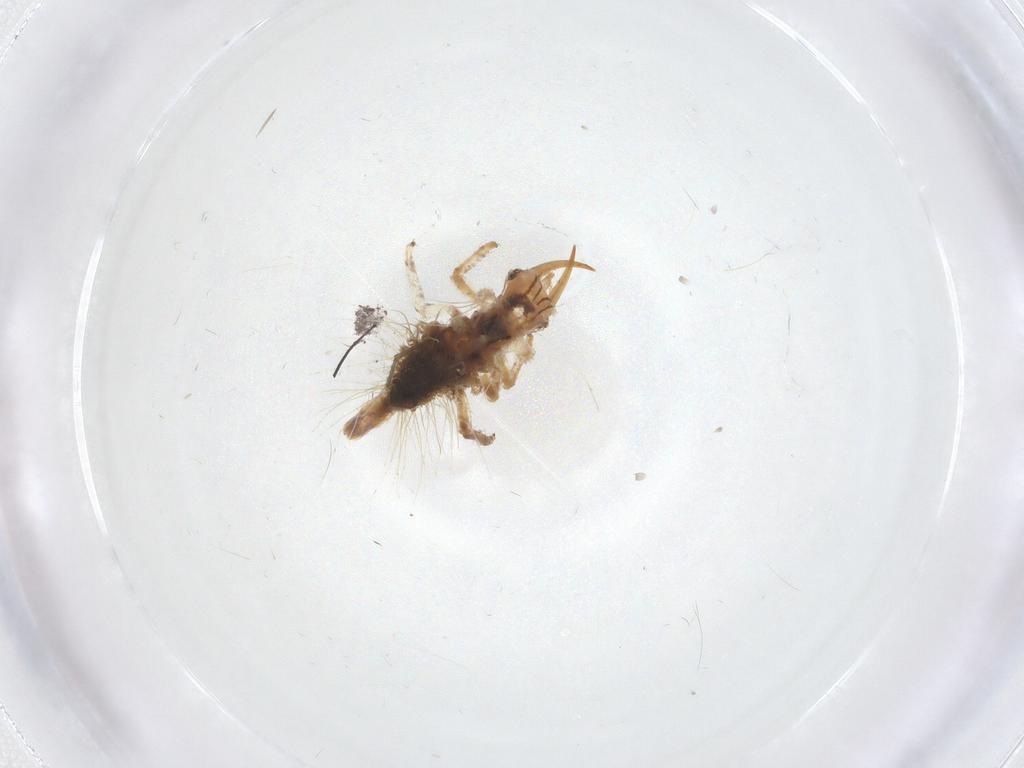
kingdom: Animalia
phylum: Arthropoda
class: Insecta
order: Neuroptera
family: Chrysopidae
